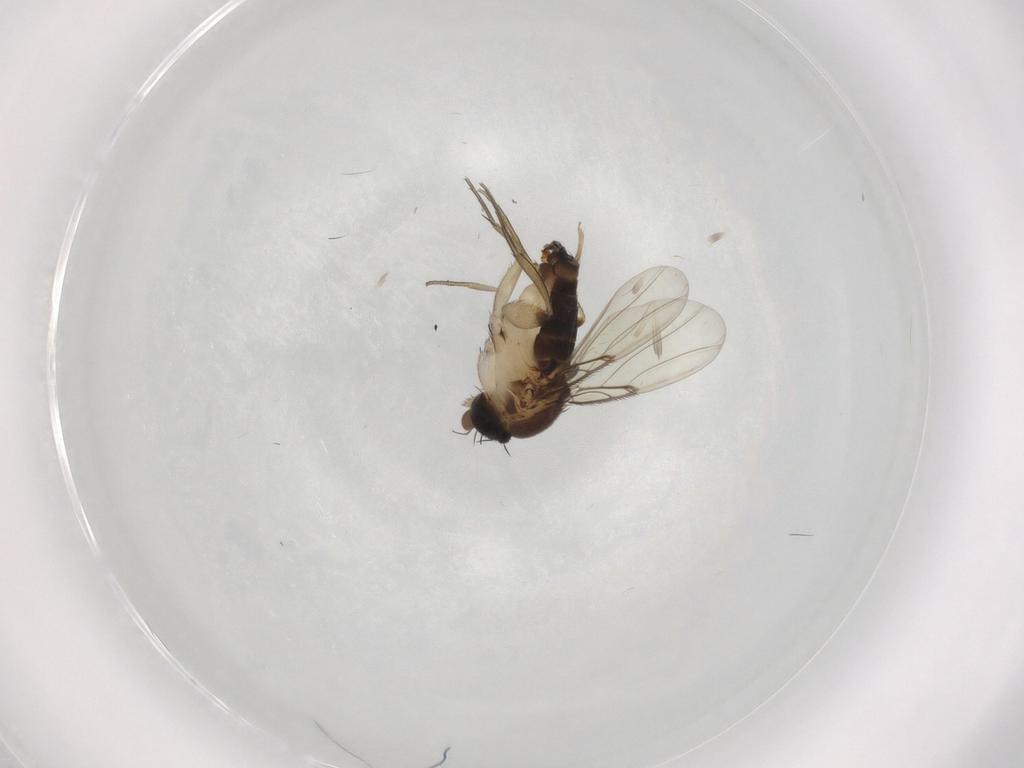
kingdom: Animalia
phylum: Arthropoda
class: Insecta
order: Diptera
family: Phoridae
